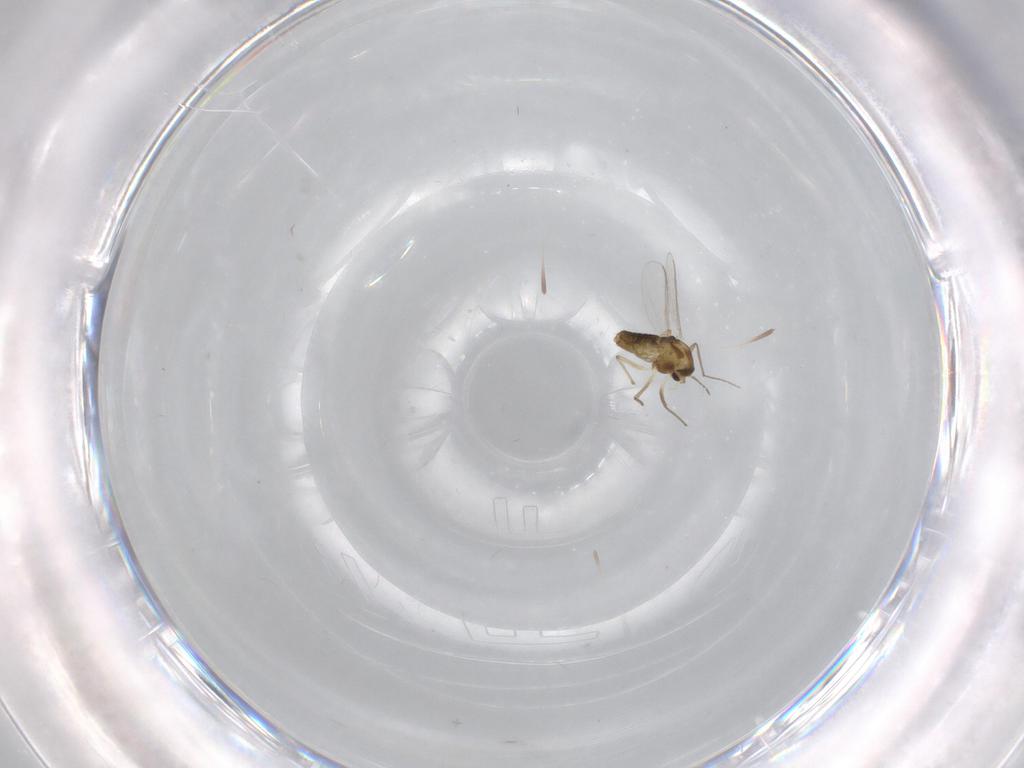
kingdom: Animalia
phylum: Arthropoda
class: Insecta
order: Diptera
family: Chironomidae
